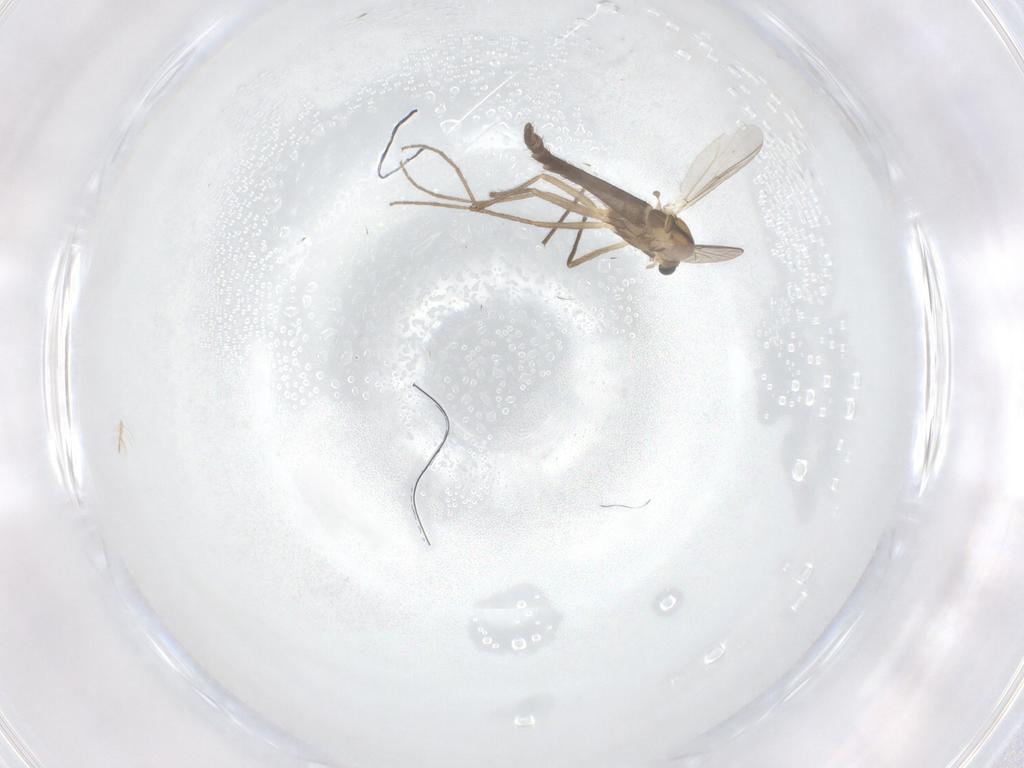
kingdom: Animalia
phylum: Arthropoda
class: Insecta
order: Diptera
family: Chironomidae
